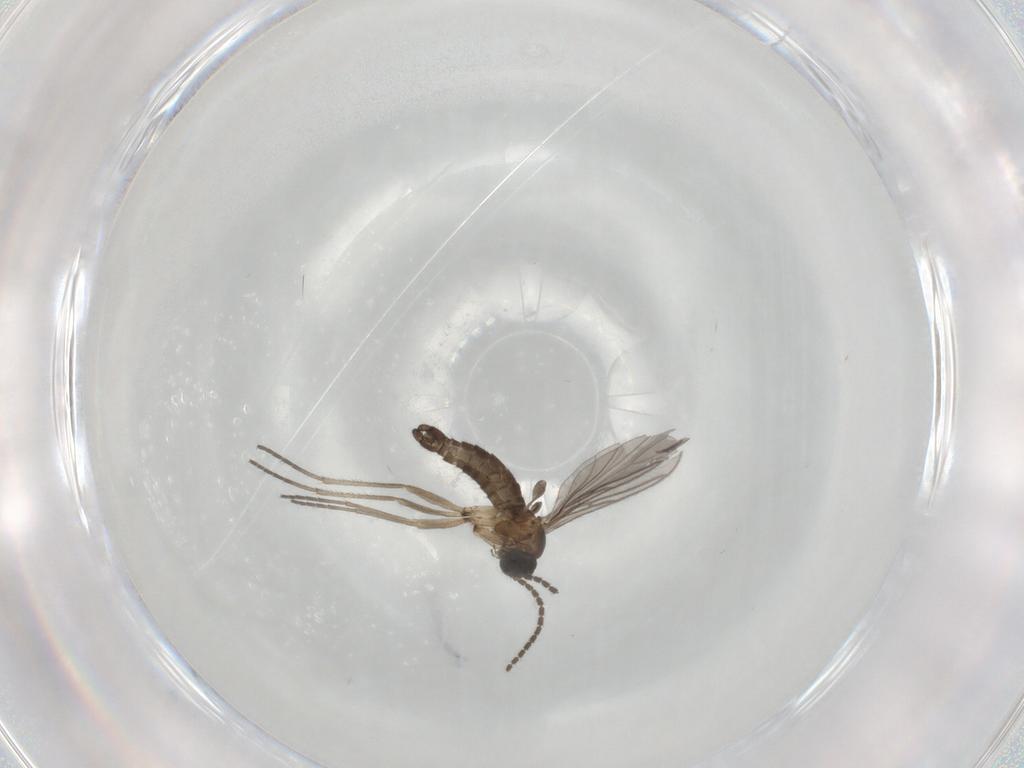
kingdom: Animalia
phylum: Arthropoda
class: Insecta
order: Diptera
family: Sciaridae
